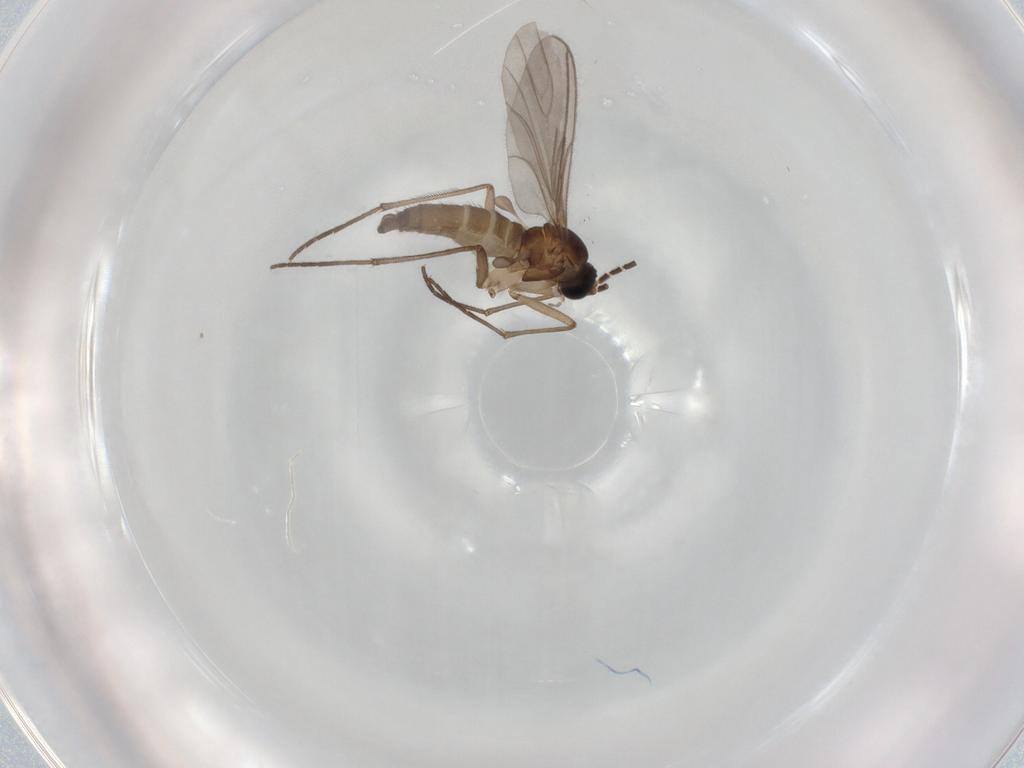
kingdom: Animalia
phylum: Arthropoda
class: Insecta
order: Diptera
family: Sciaridae
